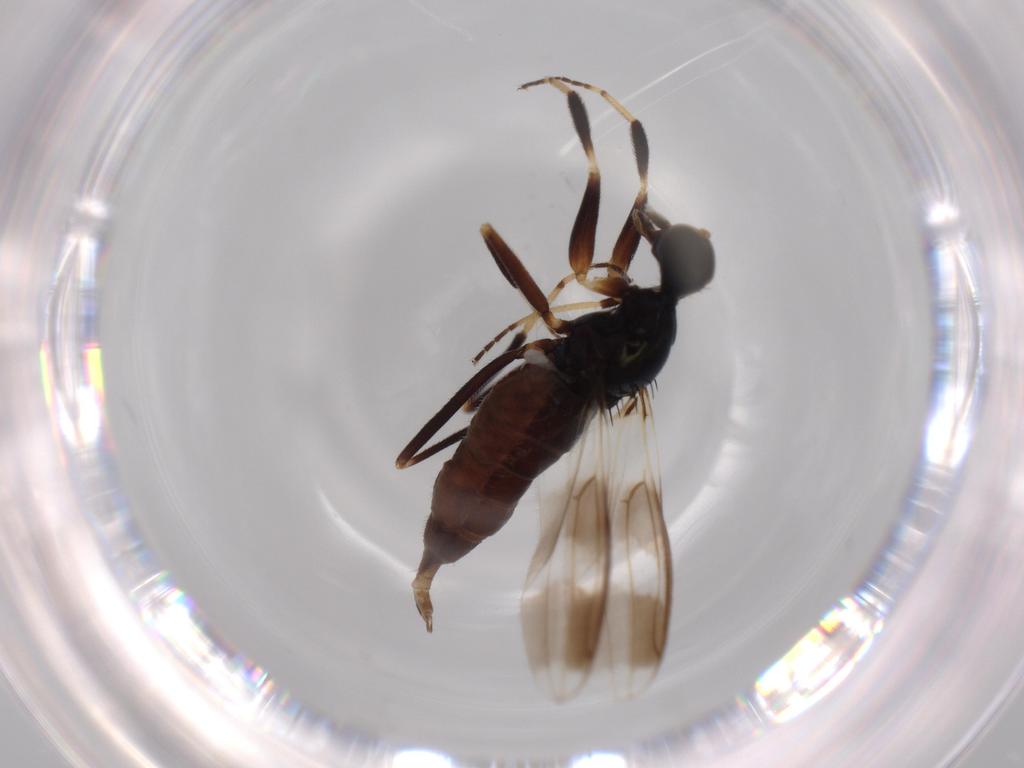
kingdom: Animalia
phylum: Arthropoda
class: Insecta
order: Diptera
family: Hybotidae
